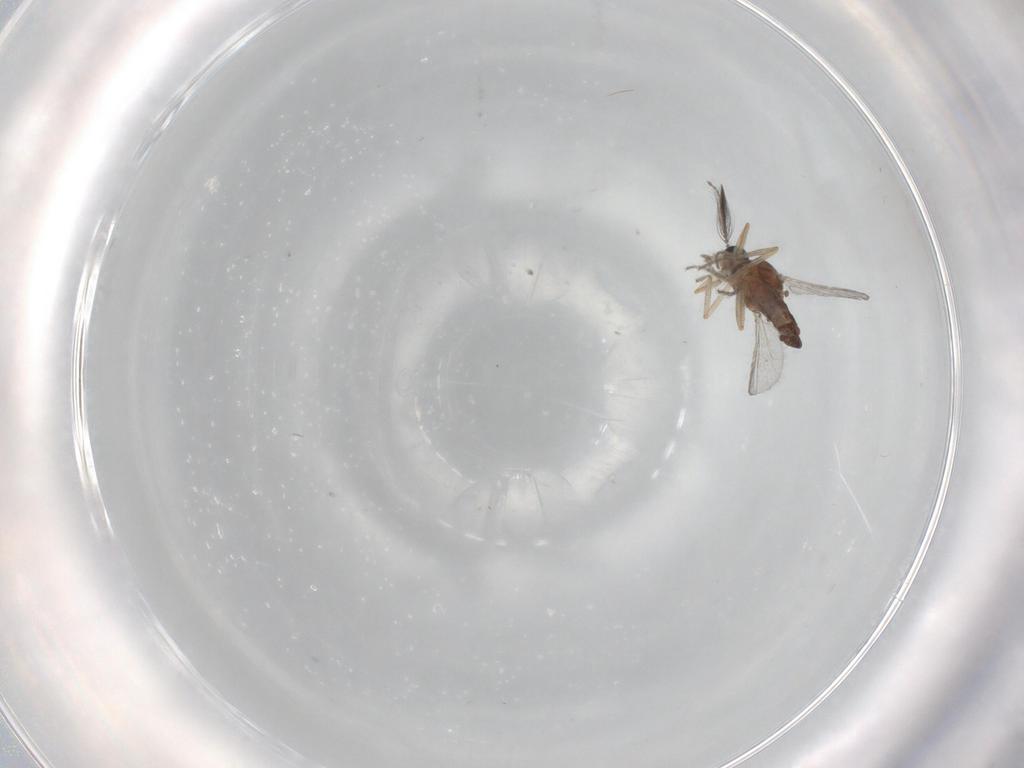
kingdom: Animalia
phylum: Arthropoda
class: Insecta
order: Diptera
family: Ceratopogonidae
